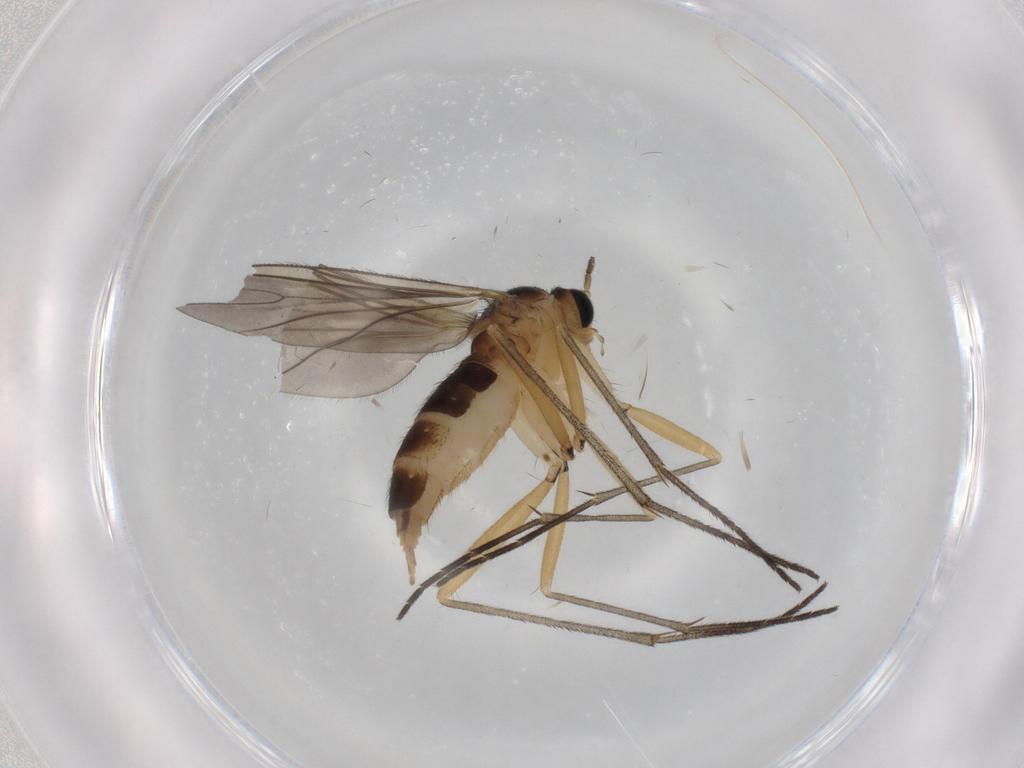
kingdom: Animalia
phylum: Arthropoda
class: Insecta
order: Diptera
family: Sciaridae
